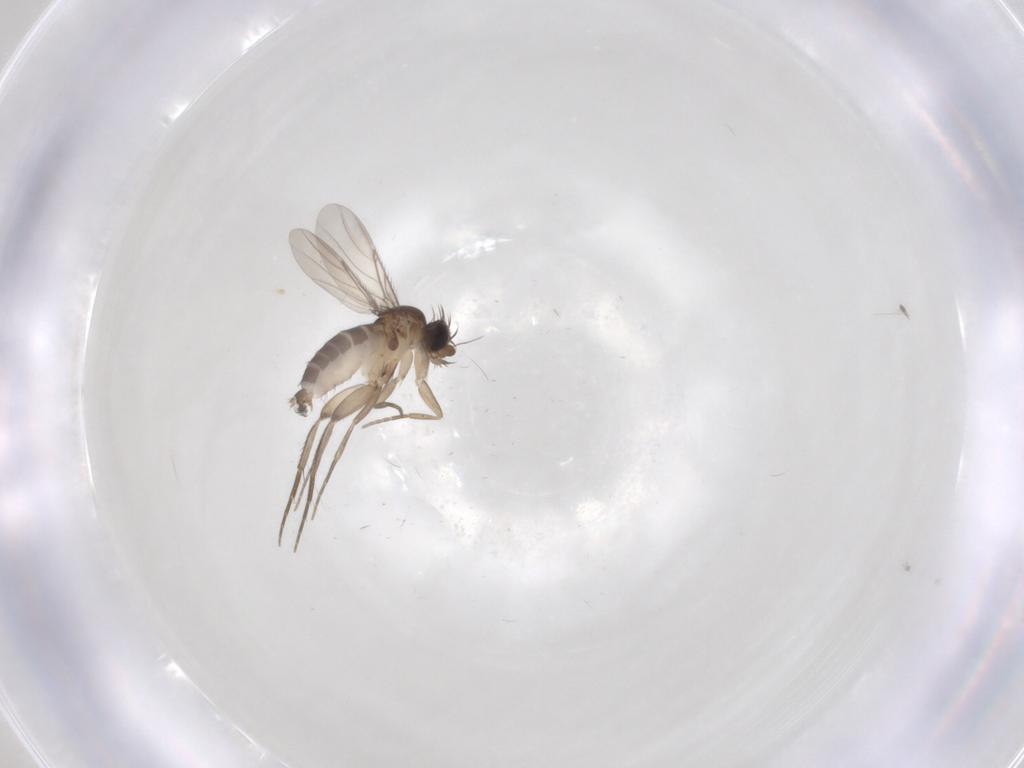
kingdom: Animalia
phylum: Arthropoda
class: Insecta
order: Diptera
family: Phoridae
